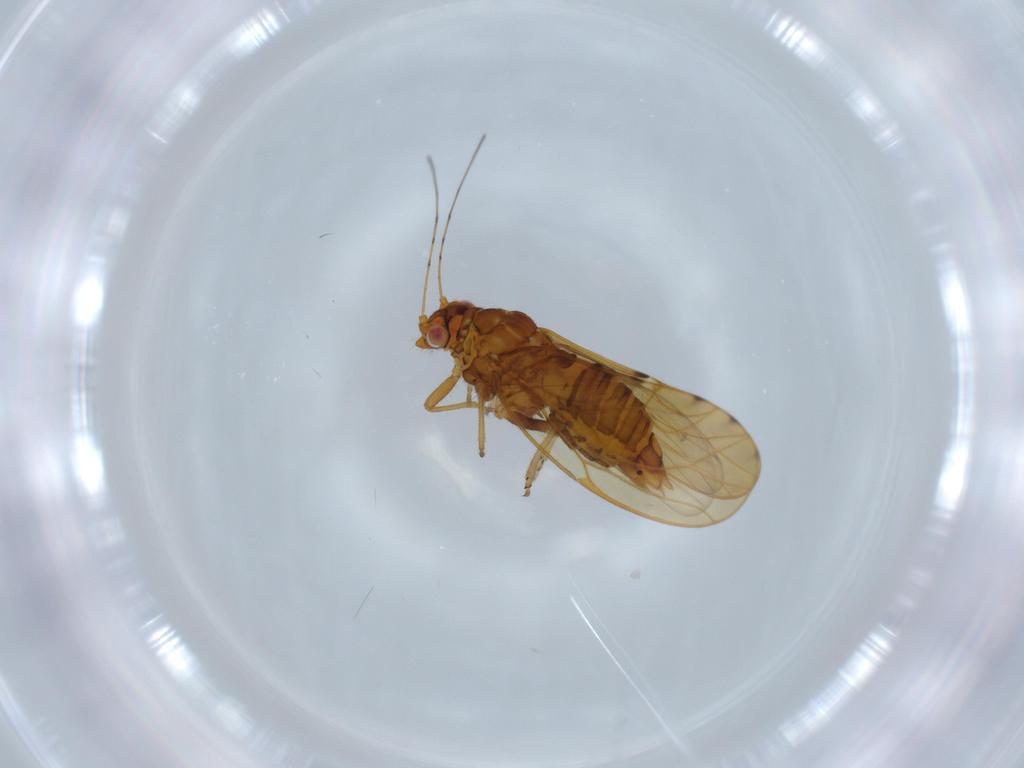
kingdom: Animalia
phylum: Arthropoda
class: Insecta
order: Hemiptera
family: Psylloidea_incertae_sedis
